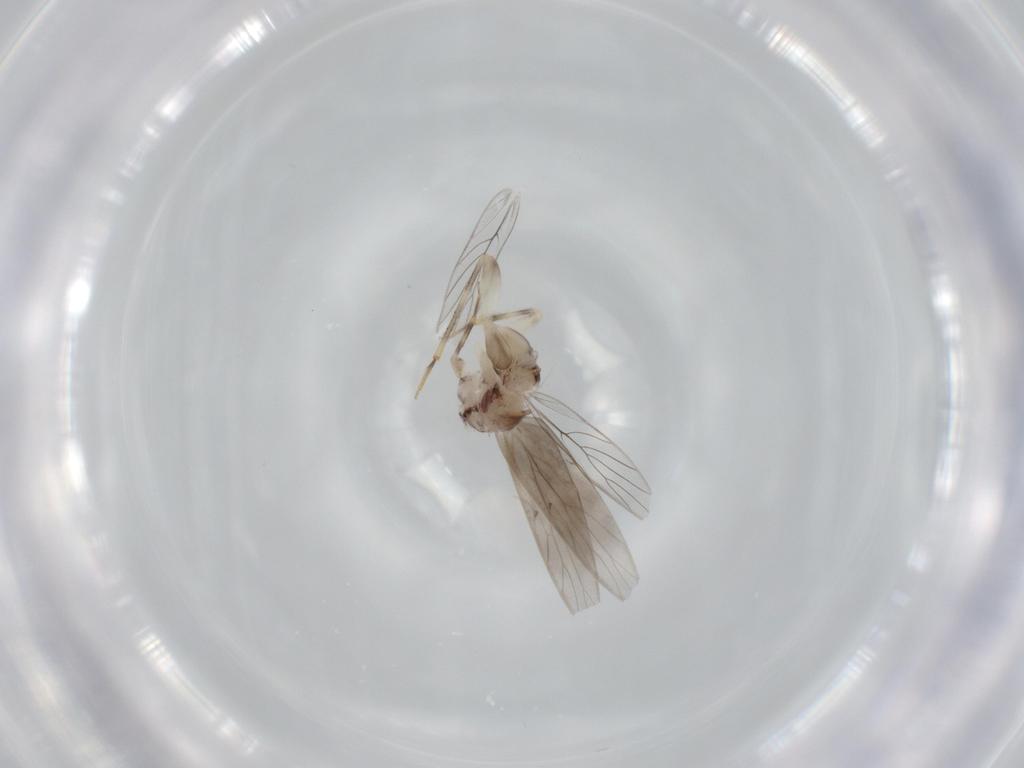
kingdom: Animalia
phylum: Arthropoda
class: Insecta
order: Psocodea
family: Lepidopsocidae
